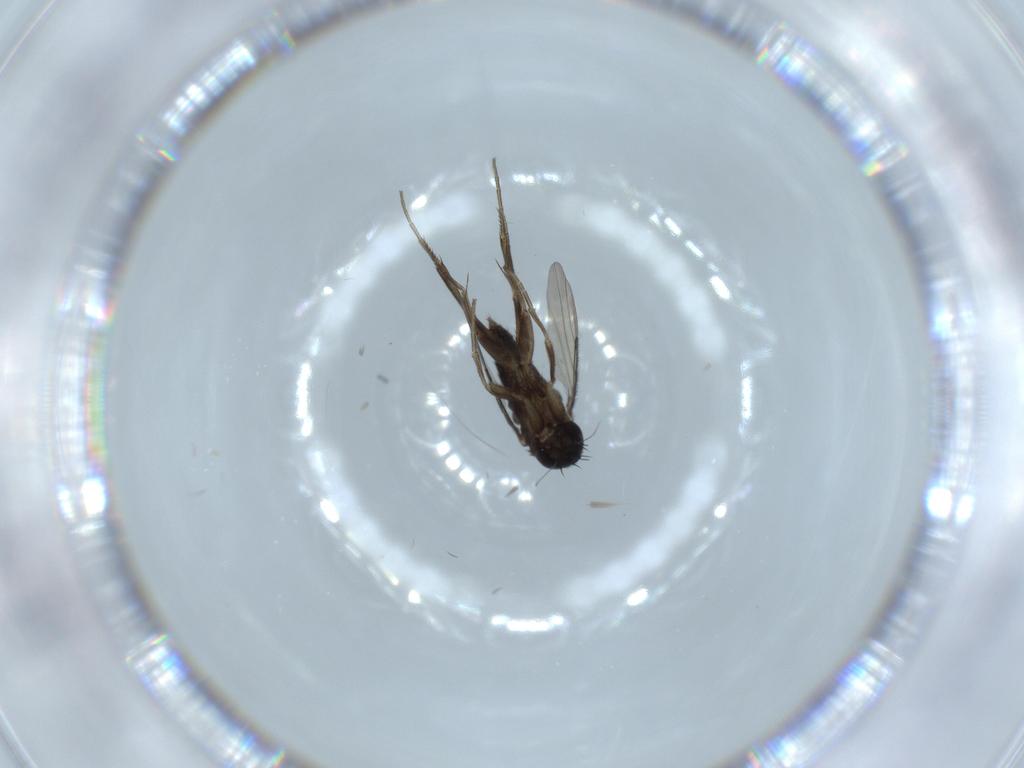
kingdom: Animalia
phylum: Arthropoda
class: Insecta
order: Diptera
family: Phoridae
